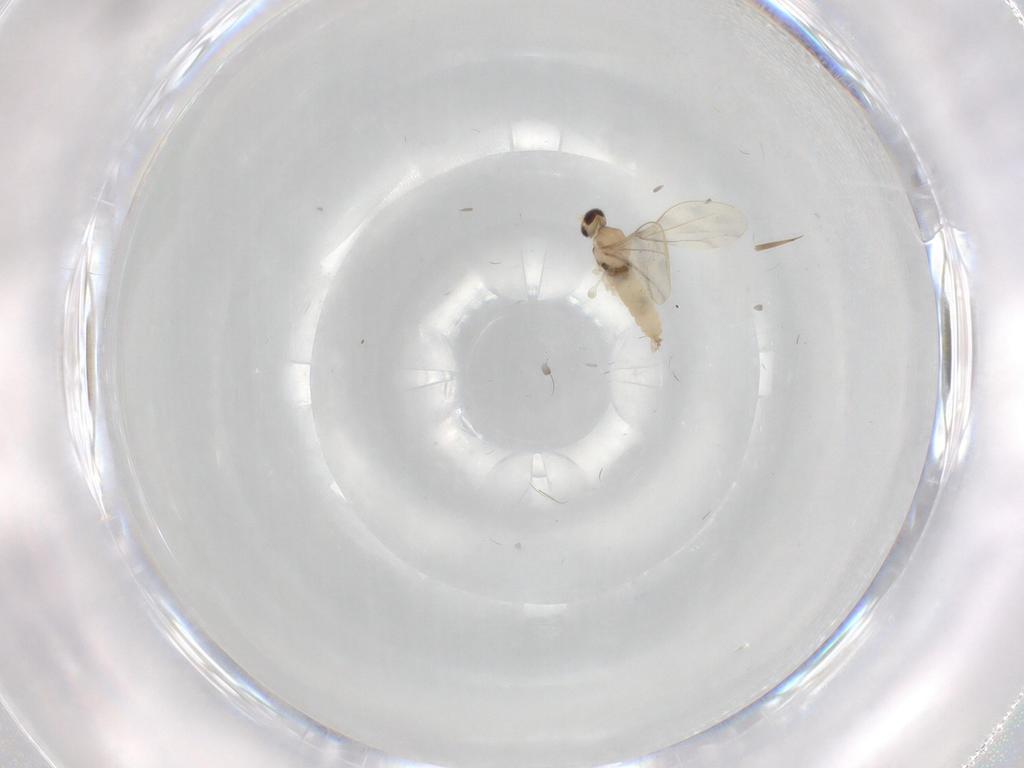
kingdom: Animalia
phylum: Arthropoda
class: Insecta
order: Diptera
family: Cecidomyiidae
